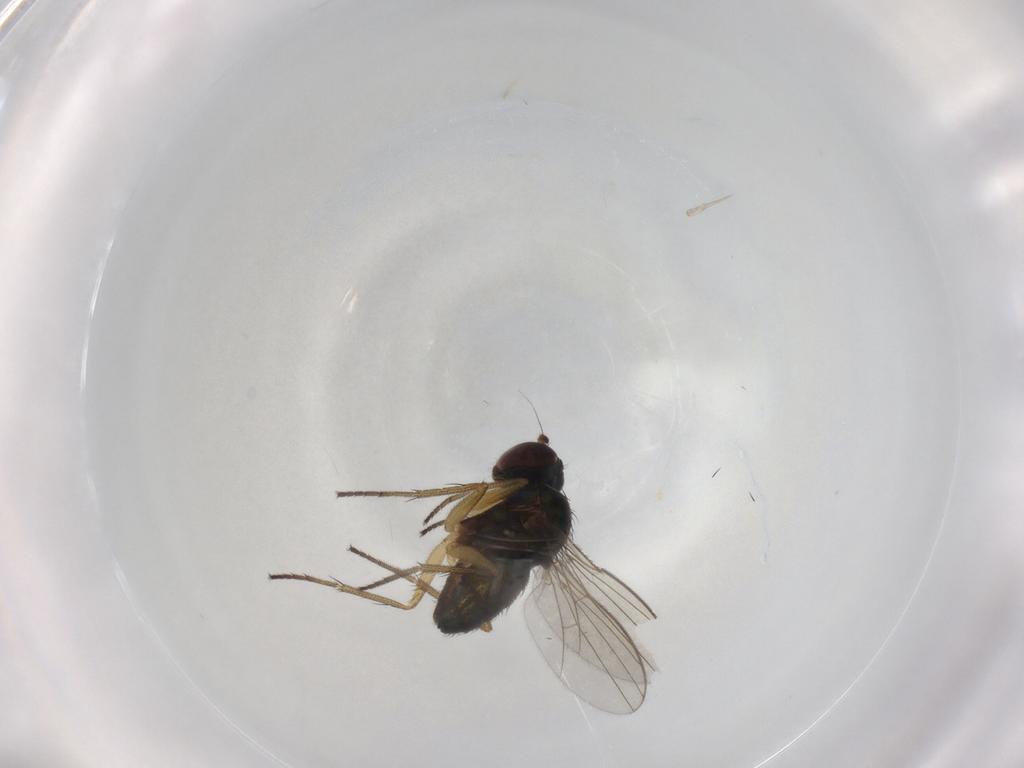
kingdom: Animalia
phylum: Arthropoda
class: Insecta
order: Diptera
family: Dolichopodidae
